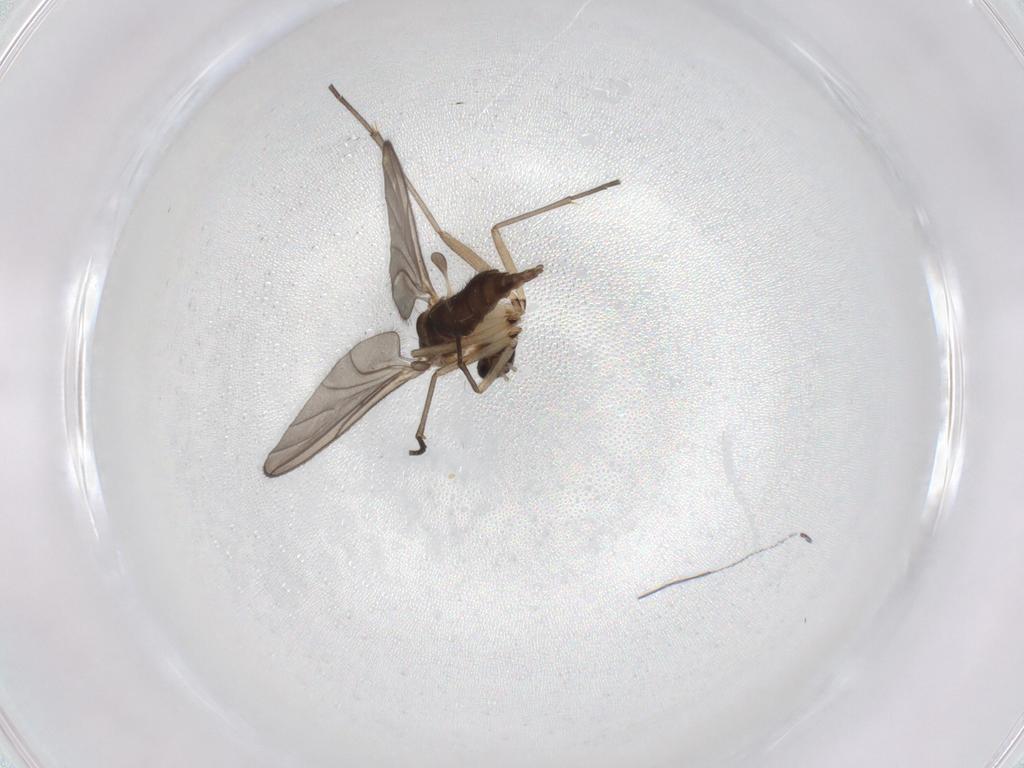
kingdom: Animalia
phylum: Arthropoda
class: Insecta
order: Diptera
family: Sciaridae
